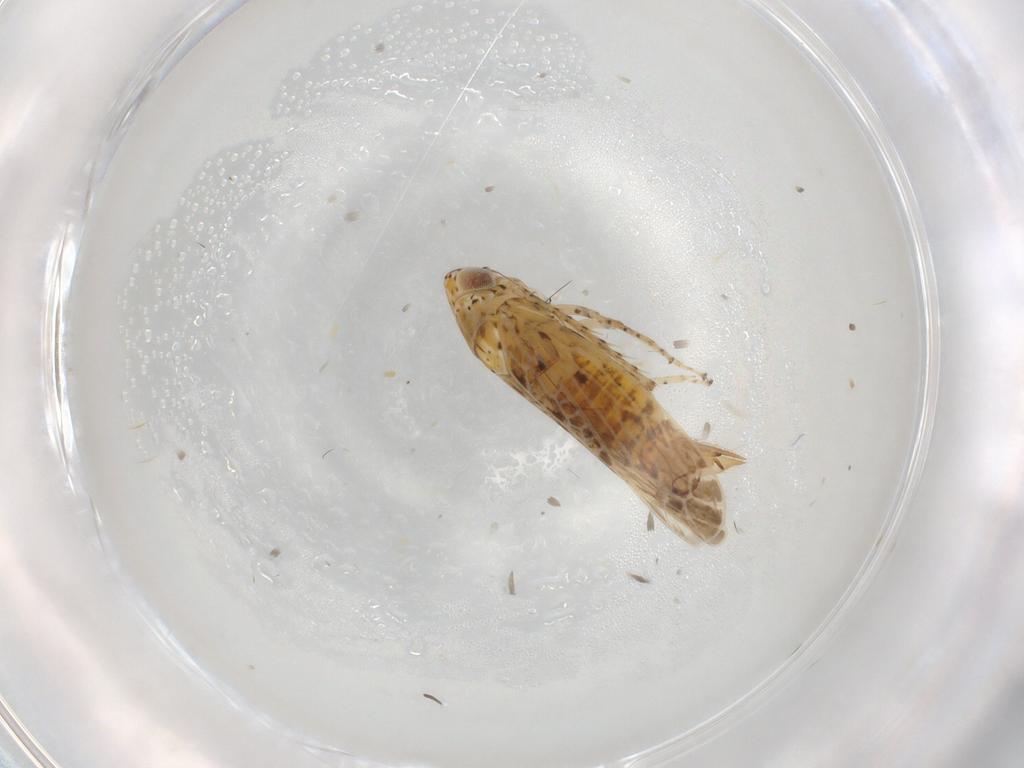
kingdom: Animalia
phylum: Arthropoda
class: Insecta
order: Hemiptera
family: Cicadellidae
